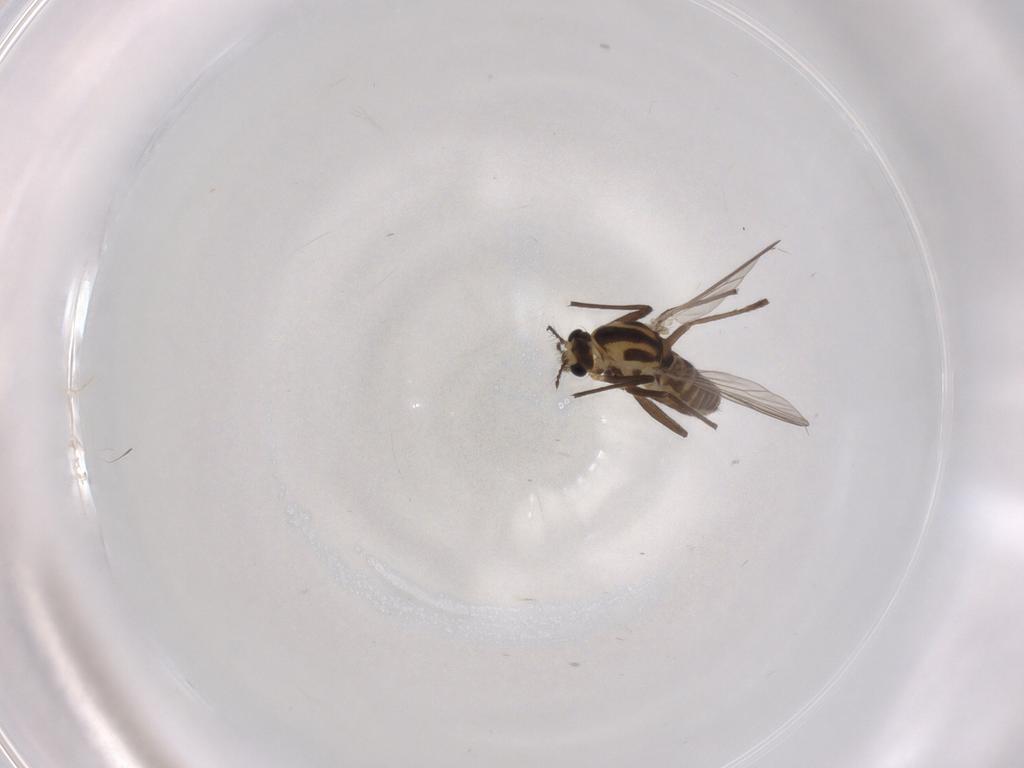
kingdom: Animalia
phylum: Arthropoda
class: Insecta
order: Diptera
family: Chironomidae
